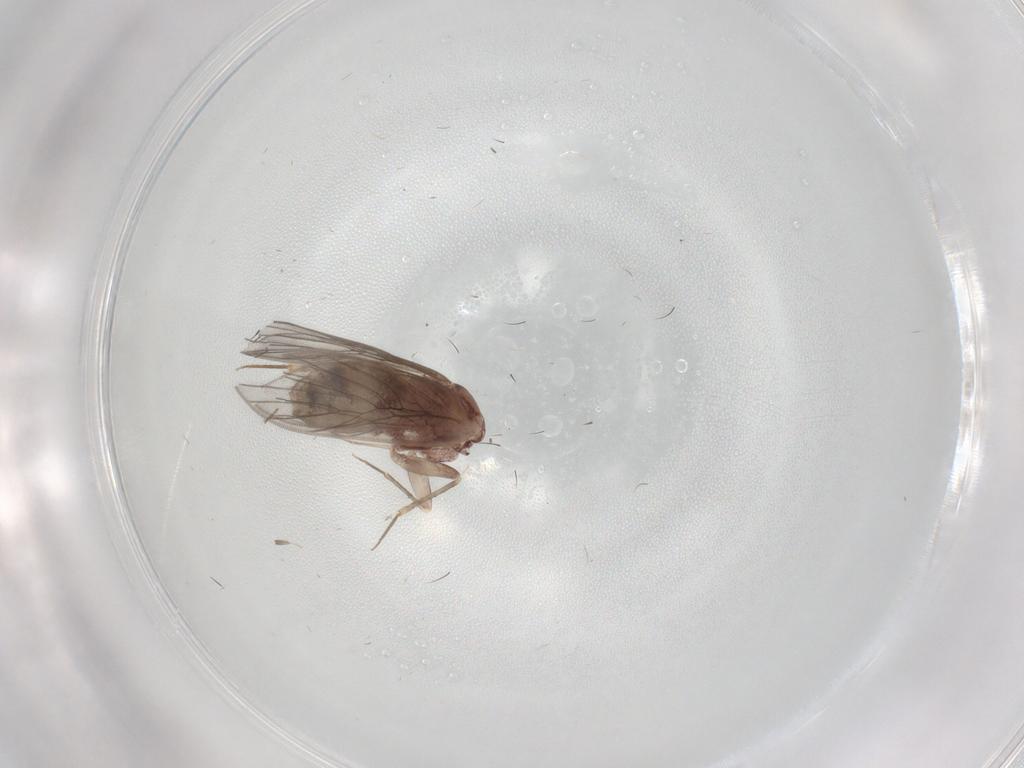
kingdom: Animalia
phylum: Arthropoda
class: Insecta
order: Psocodea
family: Lepidopsocidae
